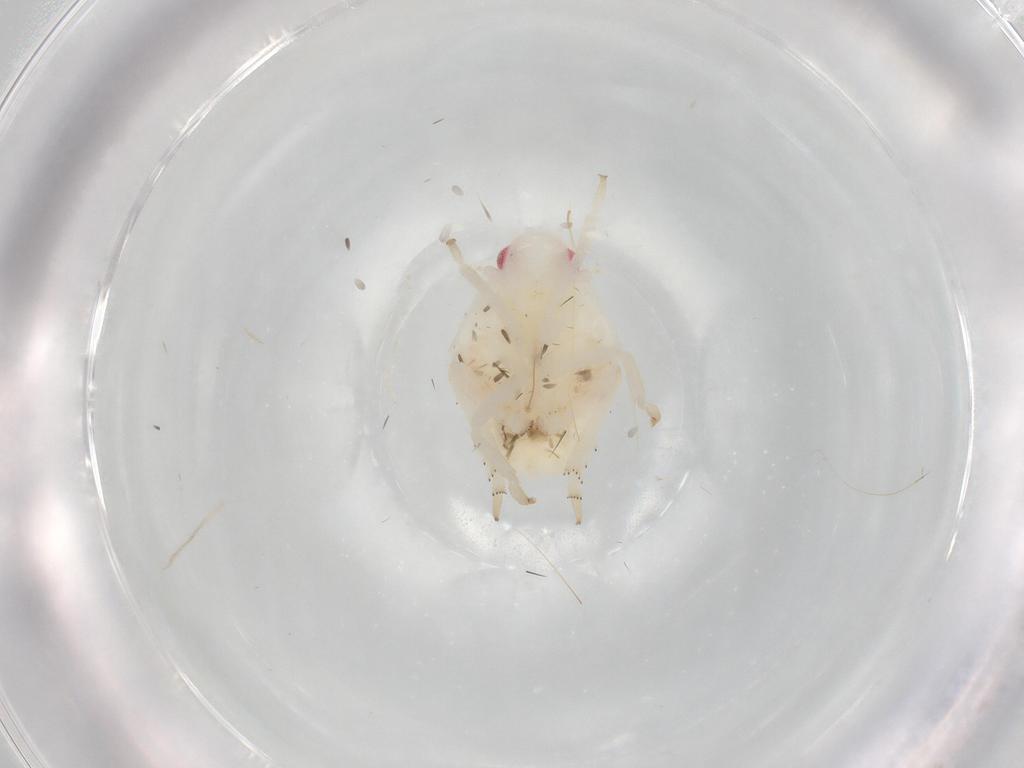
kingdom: Animalia
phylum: Arthropoda
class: Insecta
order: Hemiptera
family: Flatidae
